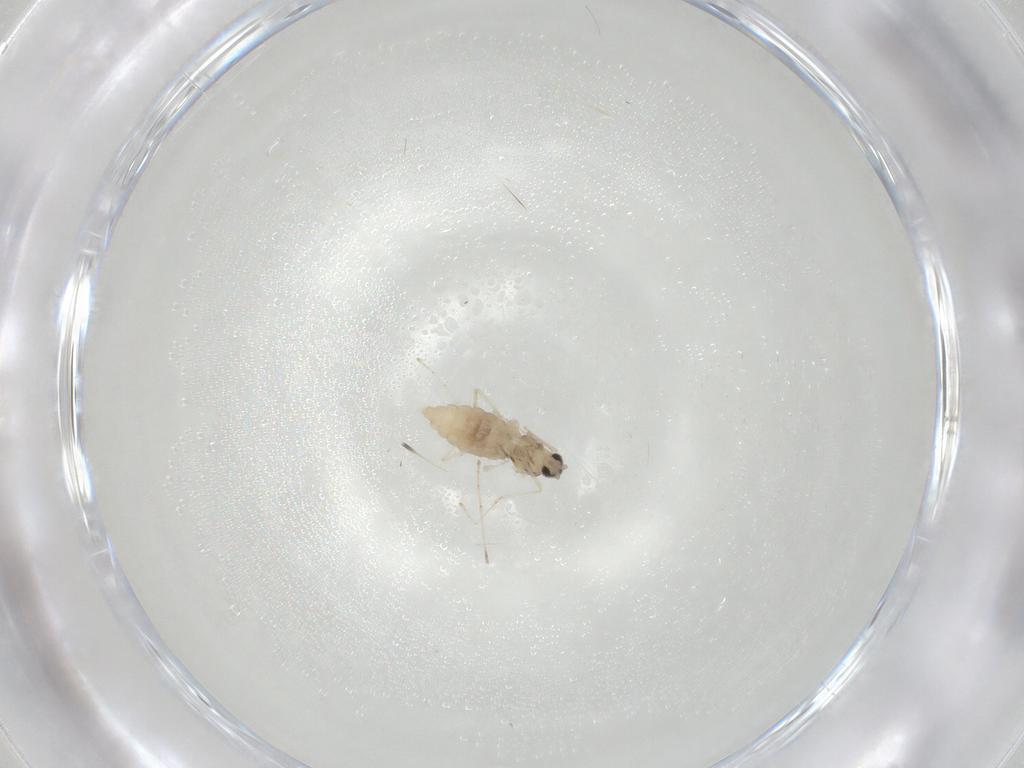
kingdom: Animalia
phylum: Arthropoda
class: Insecta
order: Diptera
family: Cecidomyiidae
